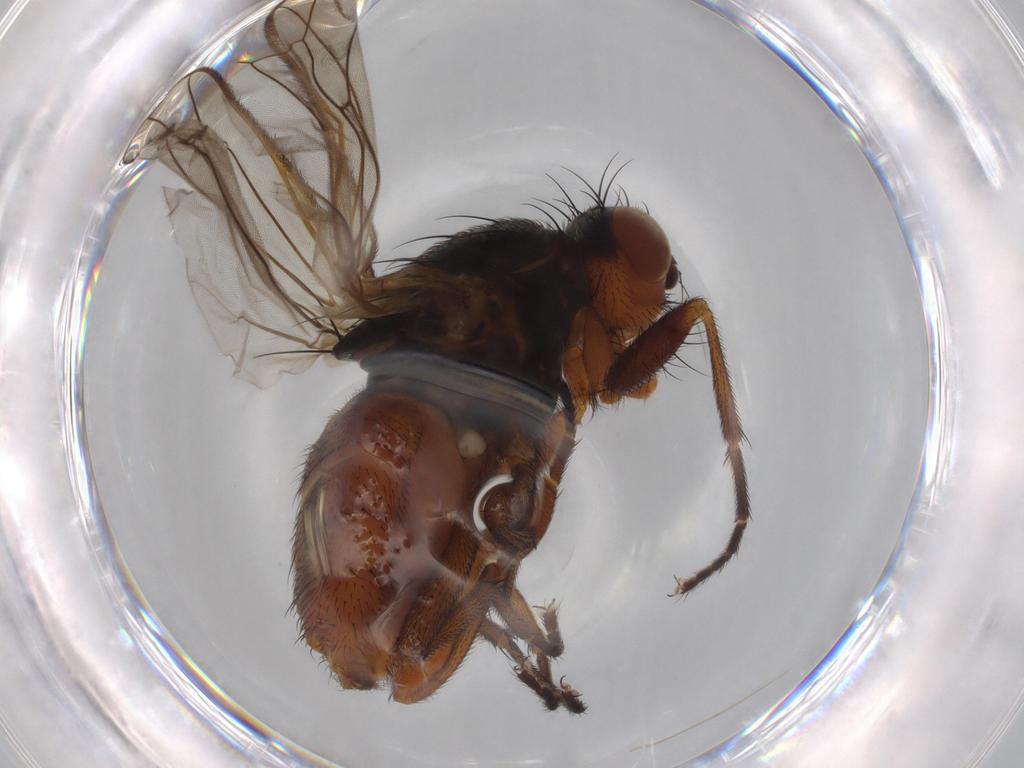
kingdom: Animalia
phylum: Arthropoda
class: Insecta
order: Diptera
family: Heleomyzidae
